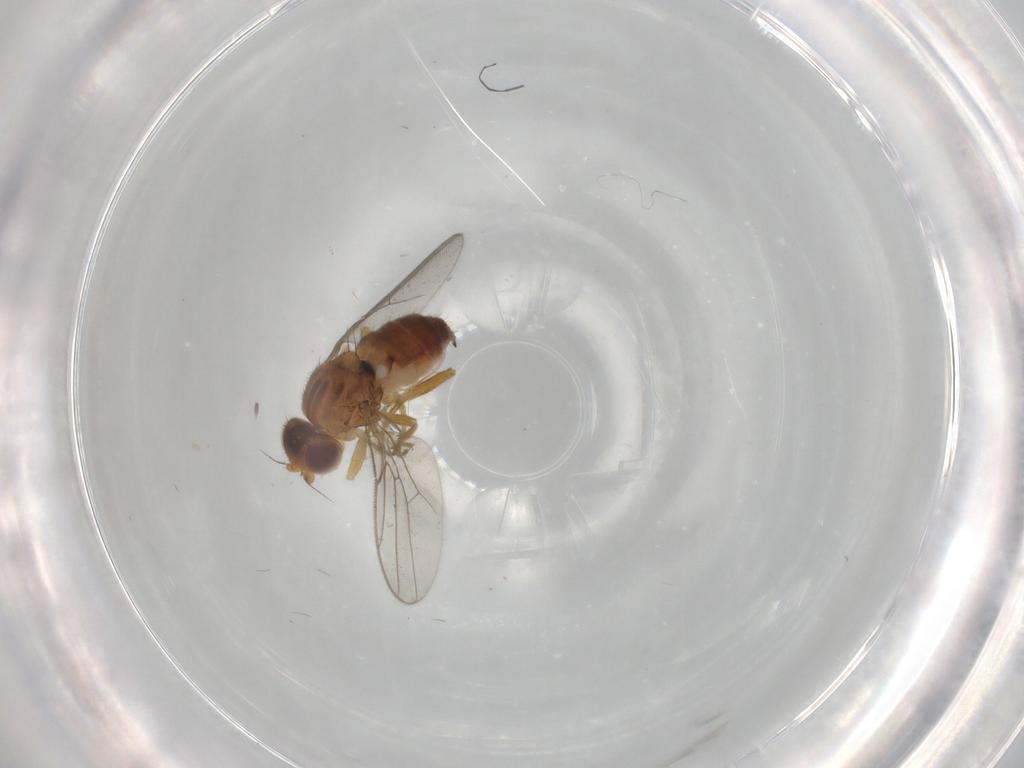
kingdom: Animalia
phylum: Arthropoda
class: Insecta
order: Diptera
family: Chloropidae
